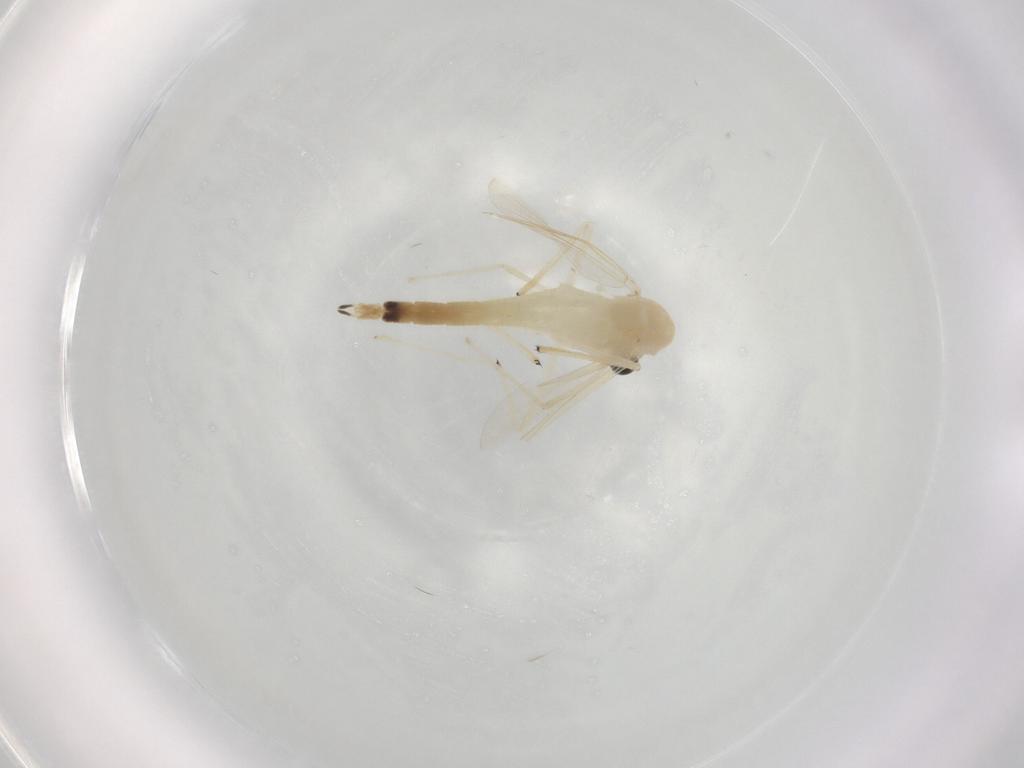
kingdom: Animalia
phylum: Arthropoda
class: Insecta
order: Diptera
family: Chironomidae
